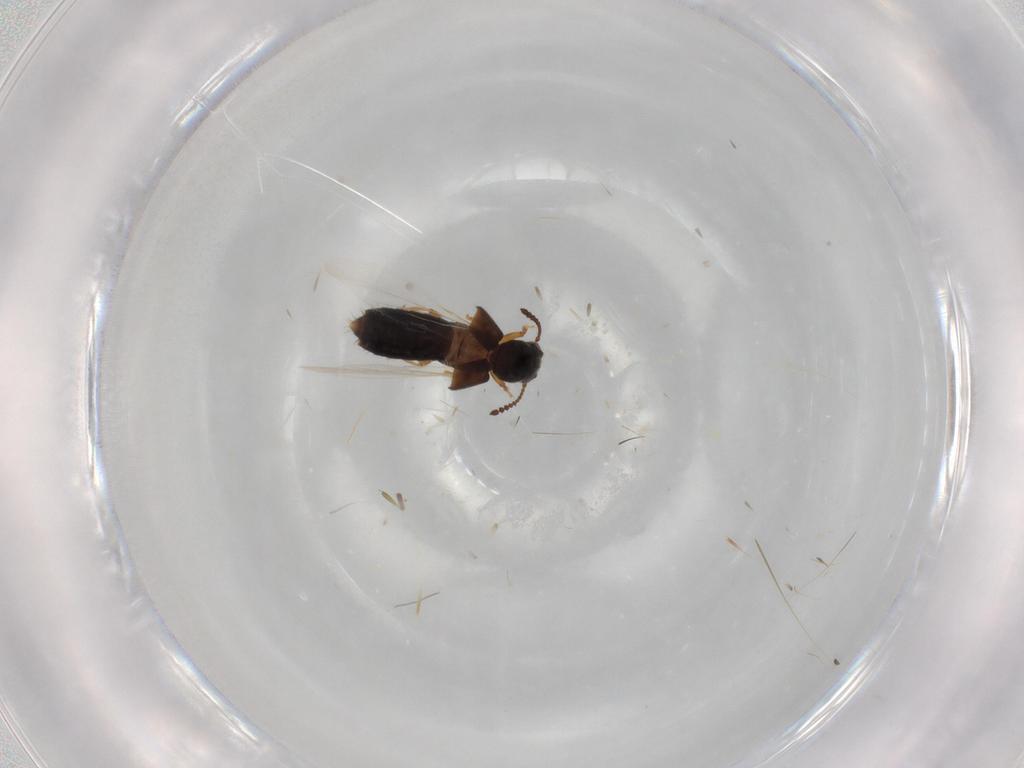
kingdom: Animalia
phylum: Arthropoda
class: Insecta
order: Coleoptera
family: Staphylinidae
